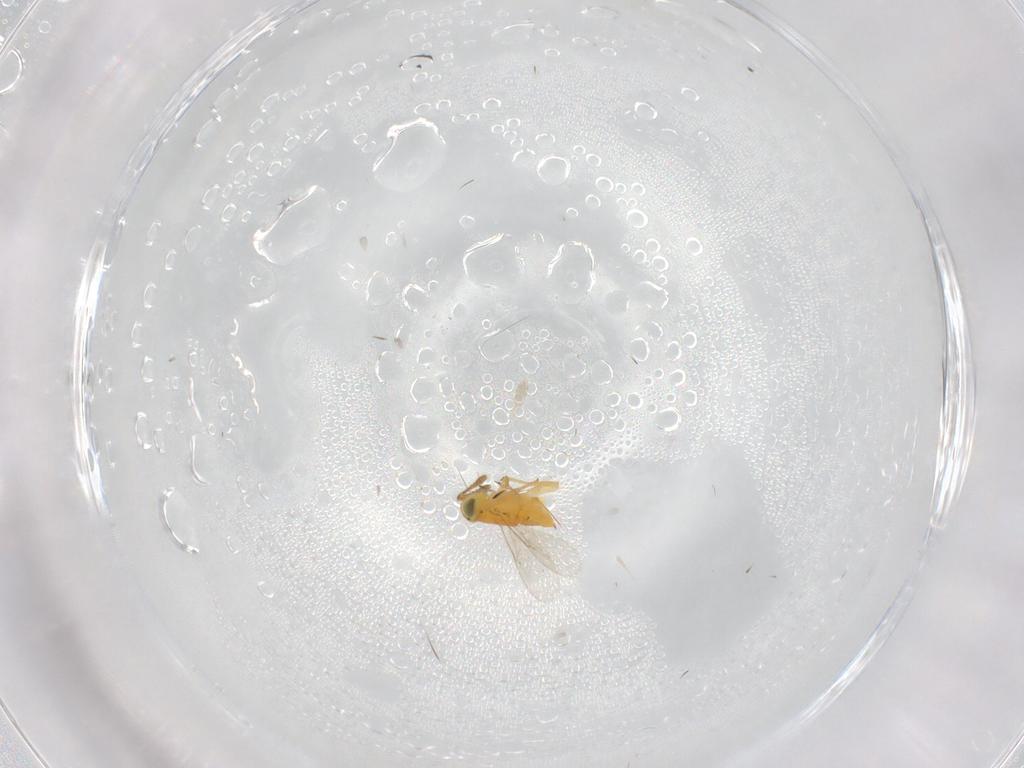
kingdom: Animalia
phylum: Arthropoda
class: Insecta
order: Hymenoptera
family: Encyrtidae
